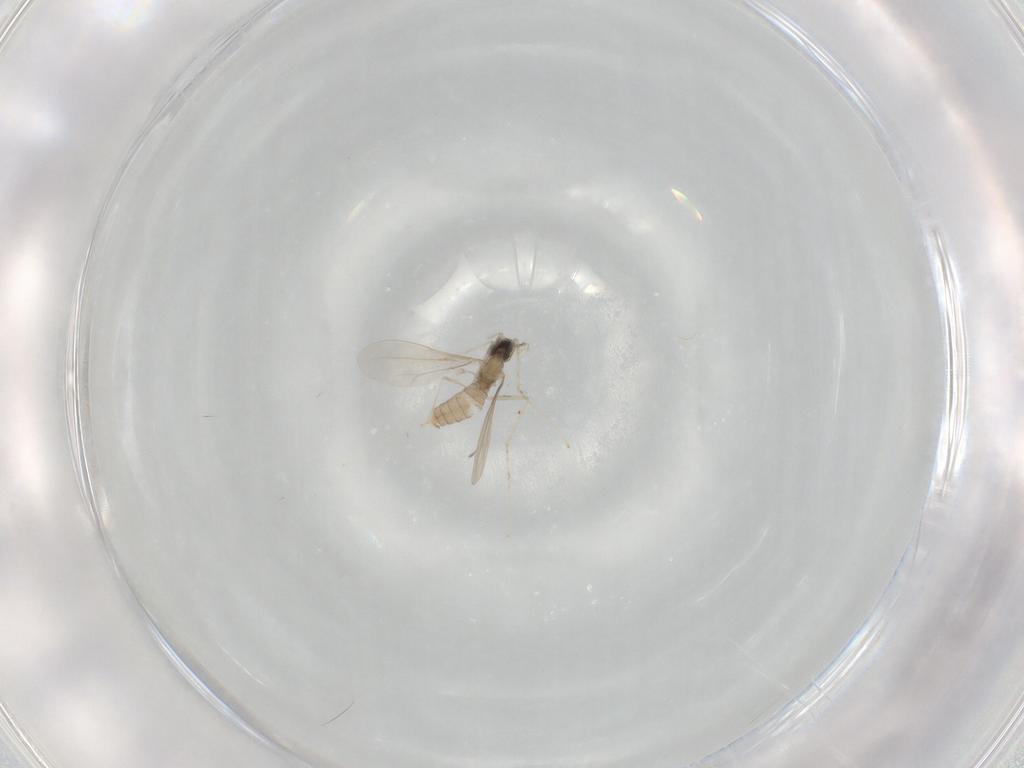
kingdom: Animalia
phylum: Arthropoda
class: Insecta
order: Diptera
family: Cecidomyiidae
